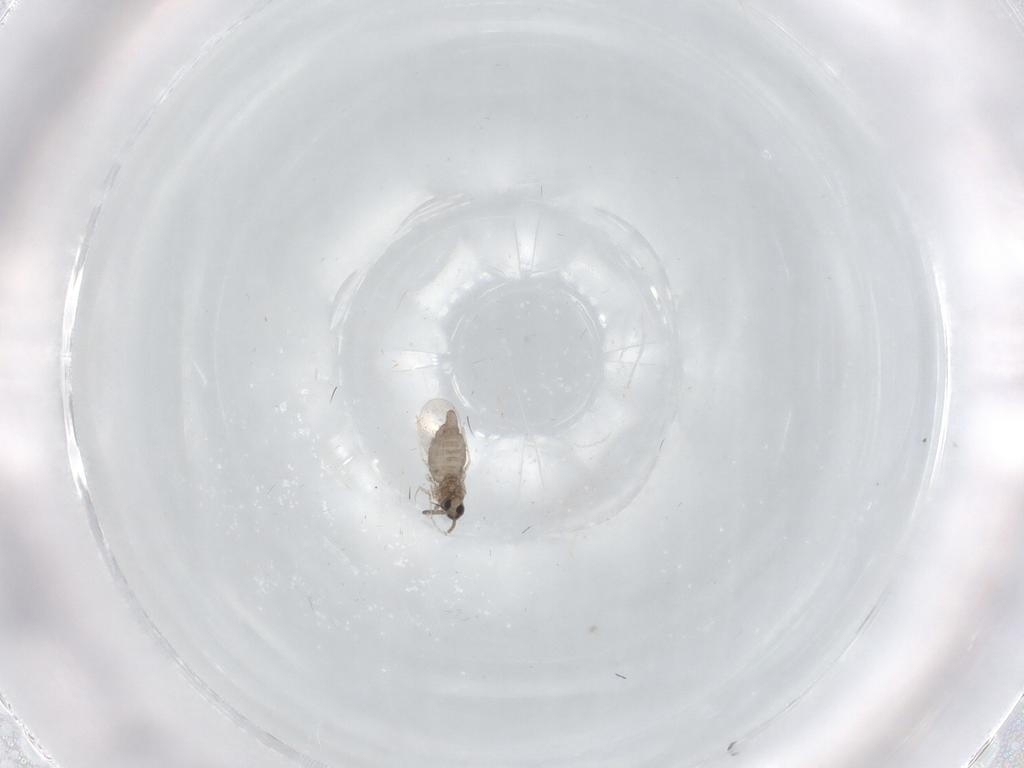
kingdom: Animalia
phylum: Arthropoda
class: Insecta
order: Diptera
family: Cecidomyiidae
